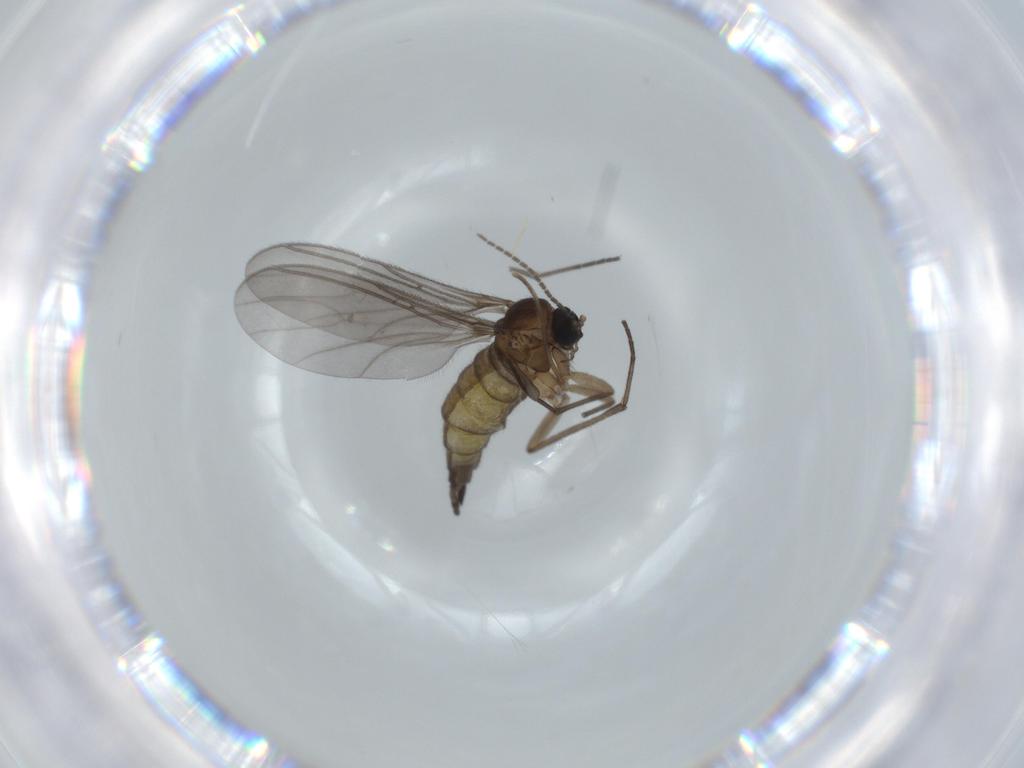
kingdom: Animalia
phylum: Arthropoda
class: Insecta
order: Diptera
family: Sciaridae
